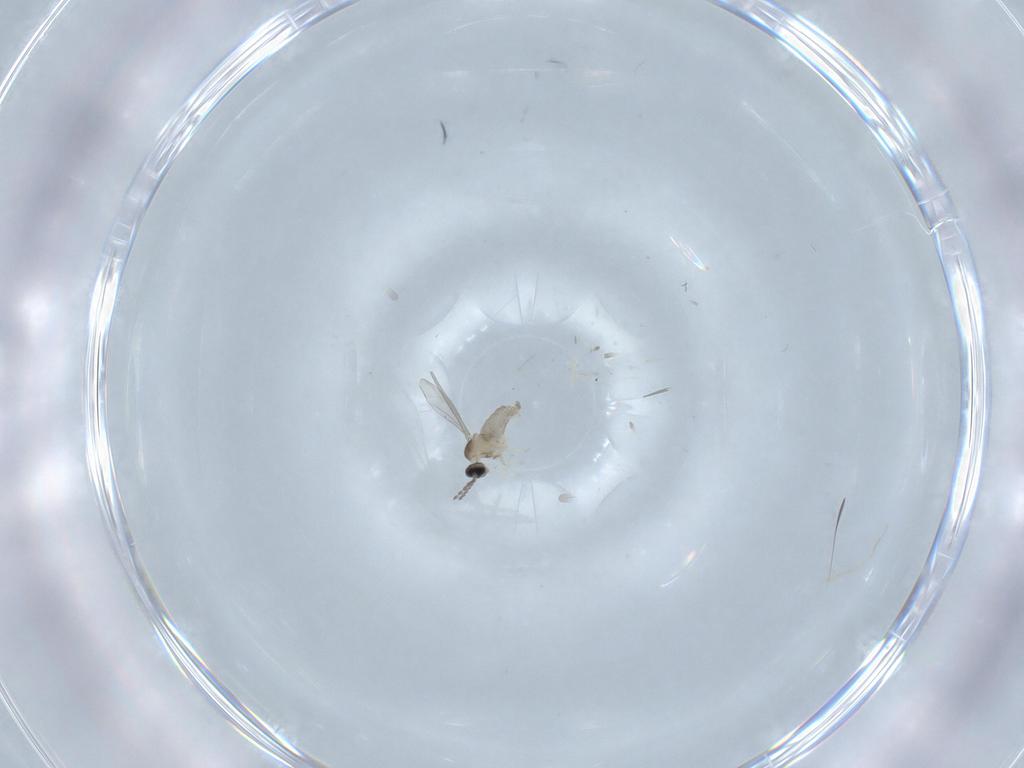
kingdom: Animalia
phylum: Arthropoda
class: Insecta
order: Diptera
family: Cecidomyiidae
